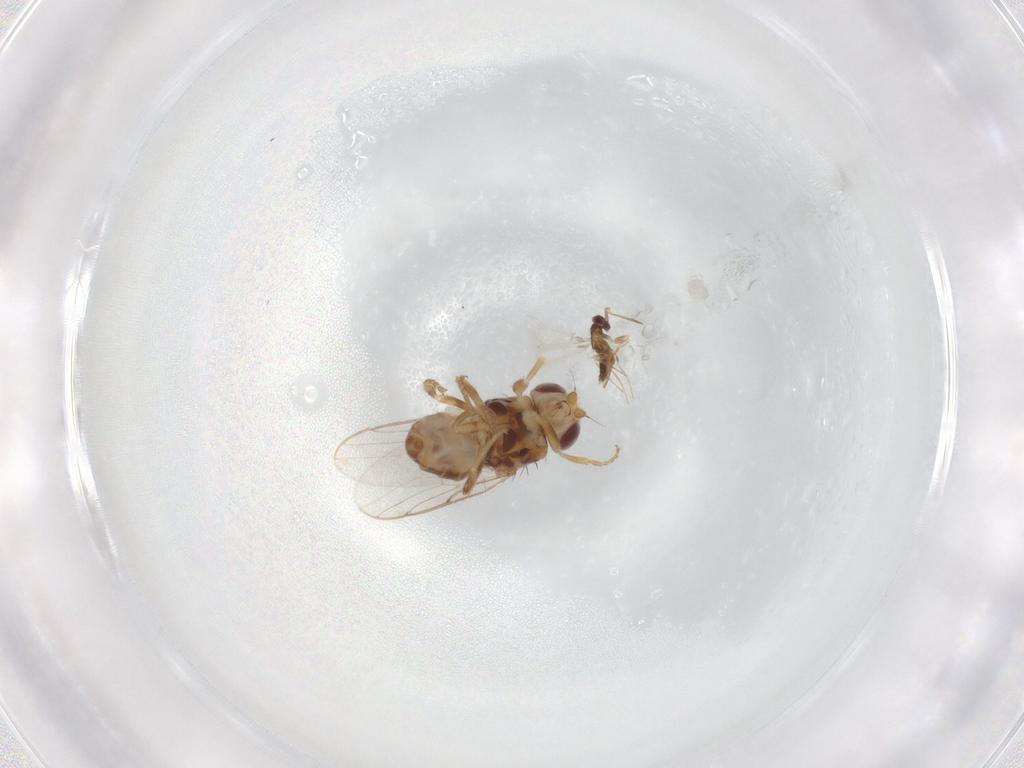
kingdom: Animalia
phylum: Arthropoda
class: Insecta
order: Diptera
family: Chloropidae
